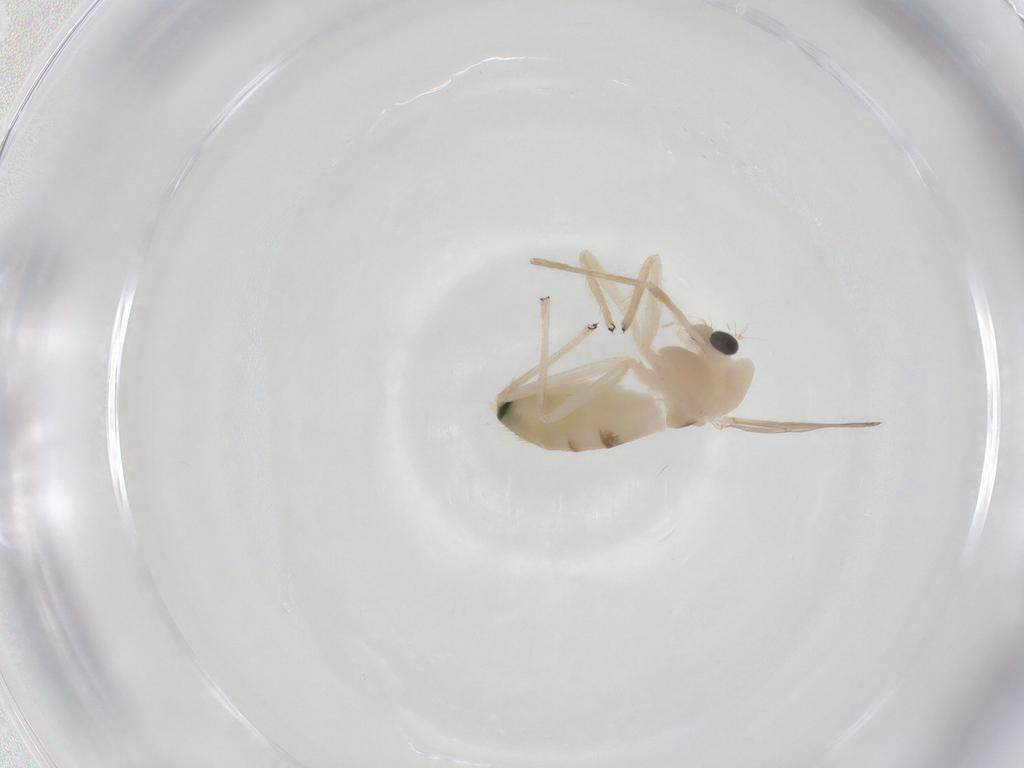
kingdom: Animalia
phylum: Arthropoda
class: Insecta
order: Diptera
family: Chironomidae
